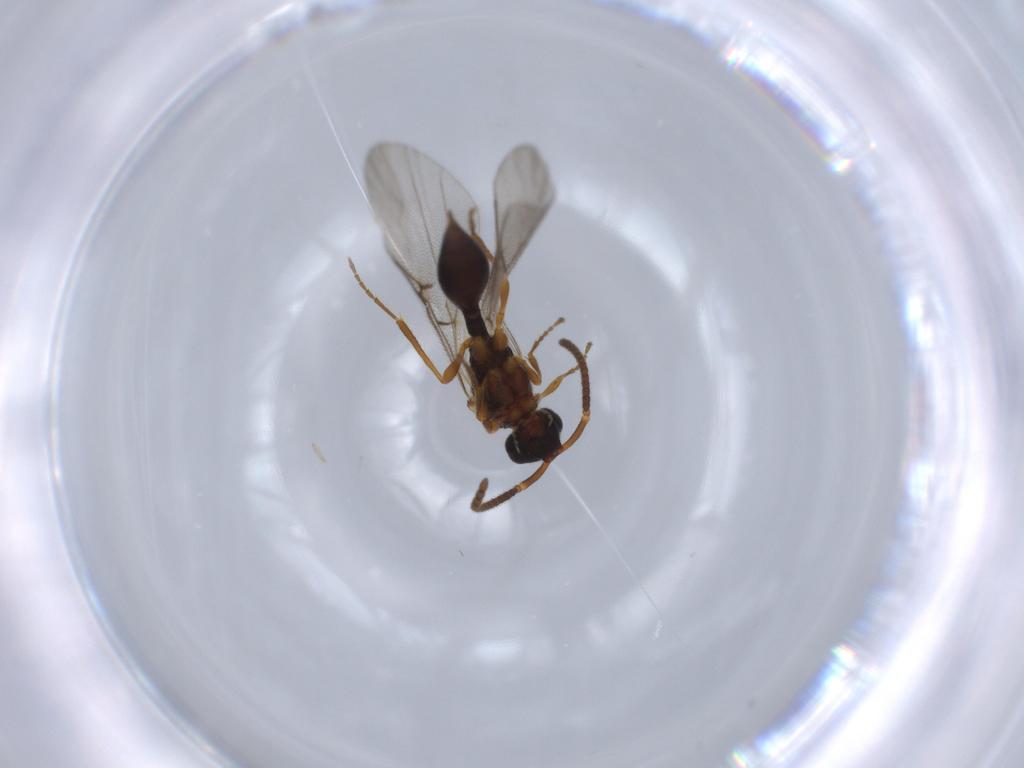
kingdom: Animalia
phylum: Arthropoda
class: Insecta
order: Hymenoptera
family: Diapriidae
